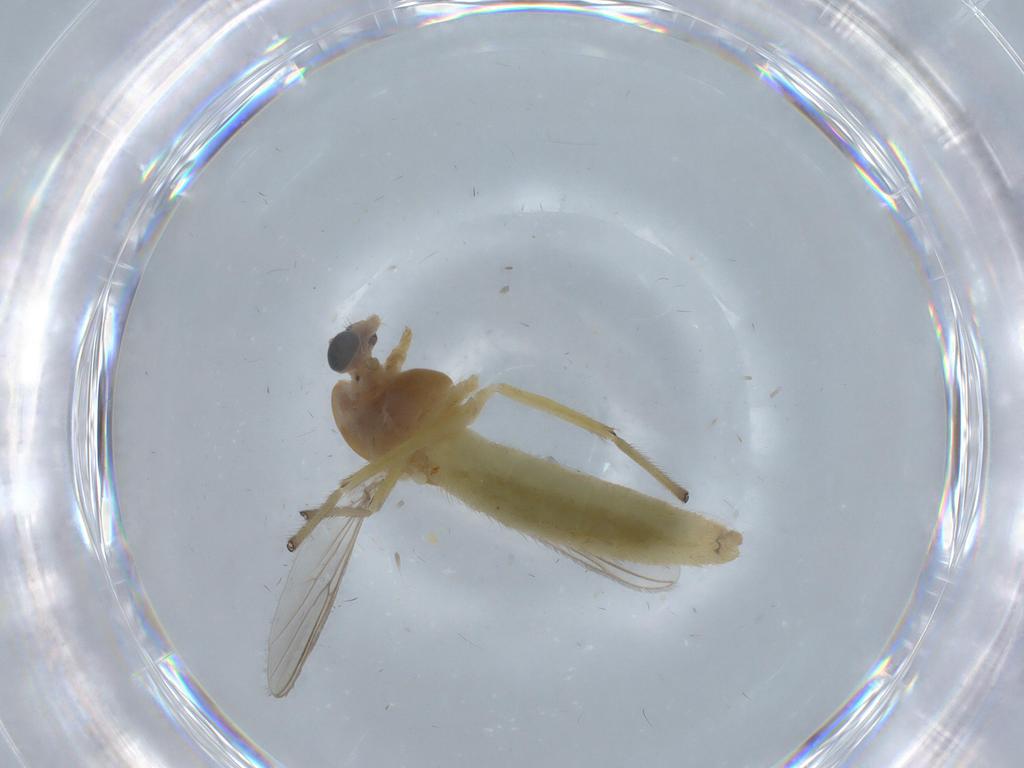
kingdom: Animalia
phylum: Arthropoda
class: Insecta
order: Diptera
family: Chironomidae
